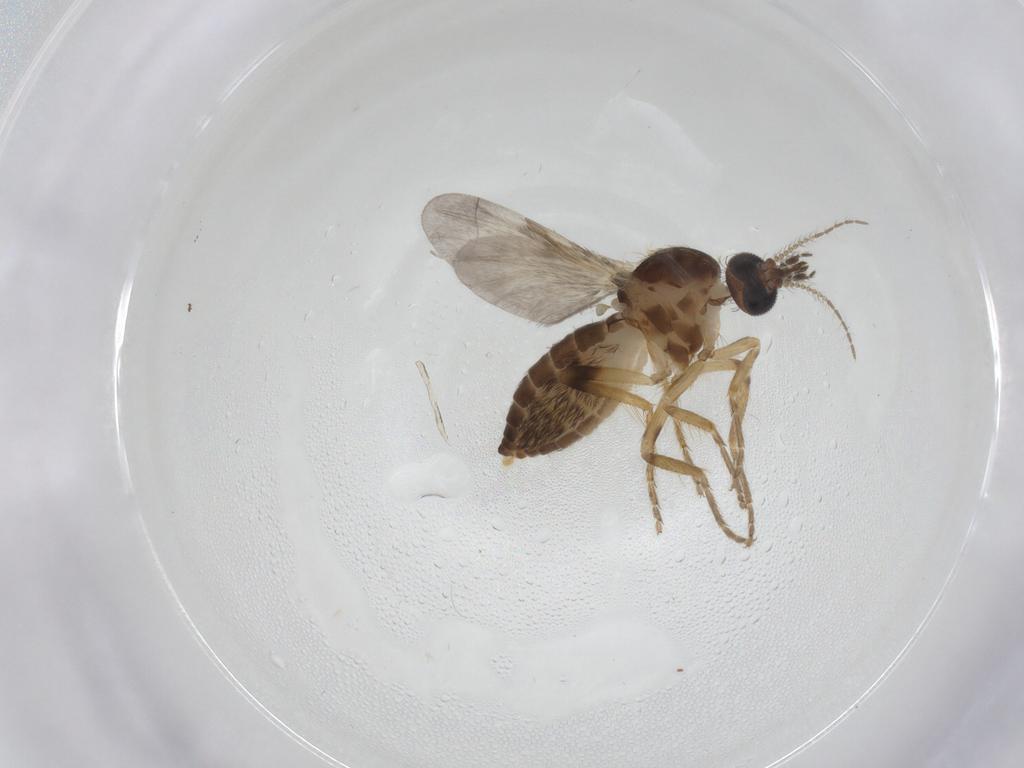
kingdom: Animalia
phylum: Arthropoda
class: Insecta
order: Diptera
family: Ceratopogonidae
